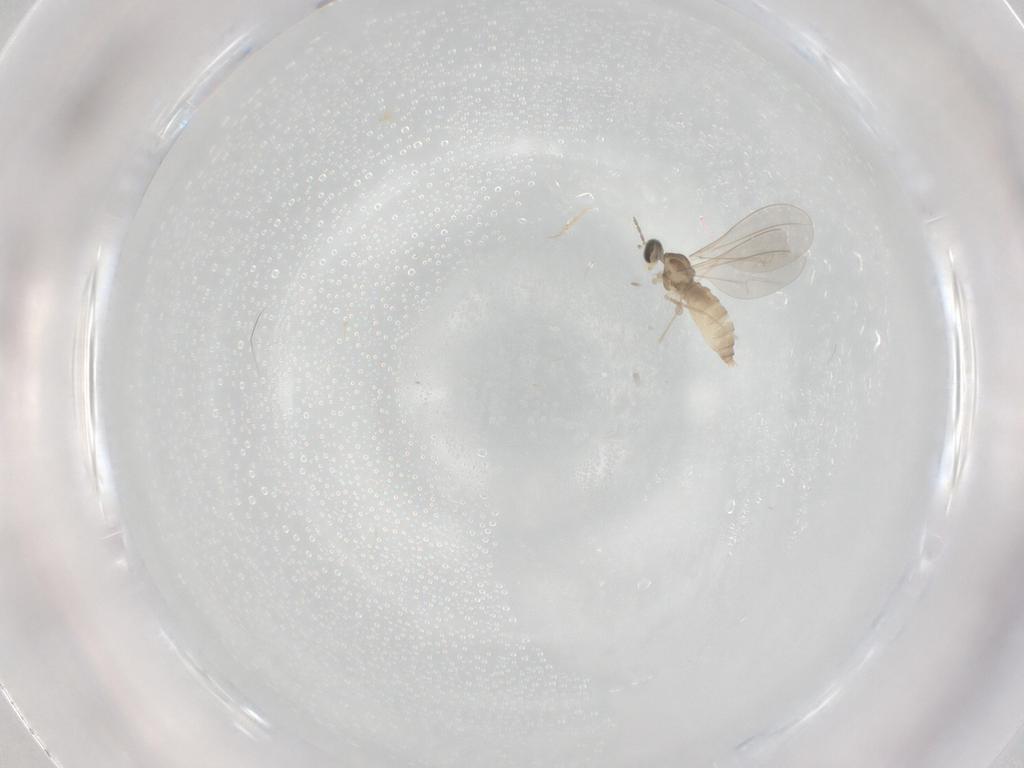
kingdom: Animalia
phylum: Arthropoda
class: Insecta
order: Diptera
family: Cecidomyiidae
